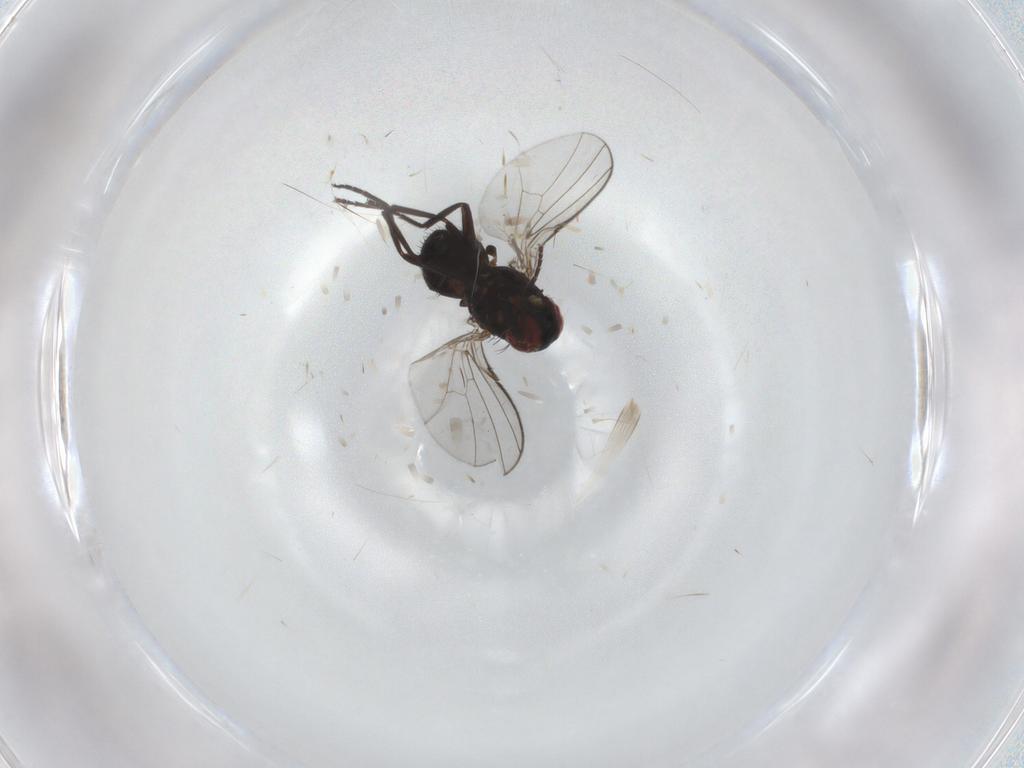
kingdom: Animalia
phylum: Arthropoda
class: Insecta
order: Diptera
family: Agromyzidae
